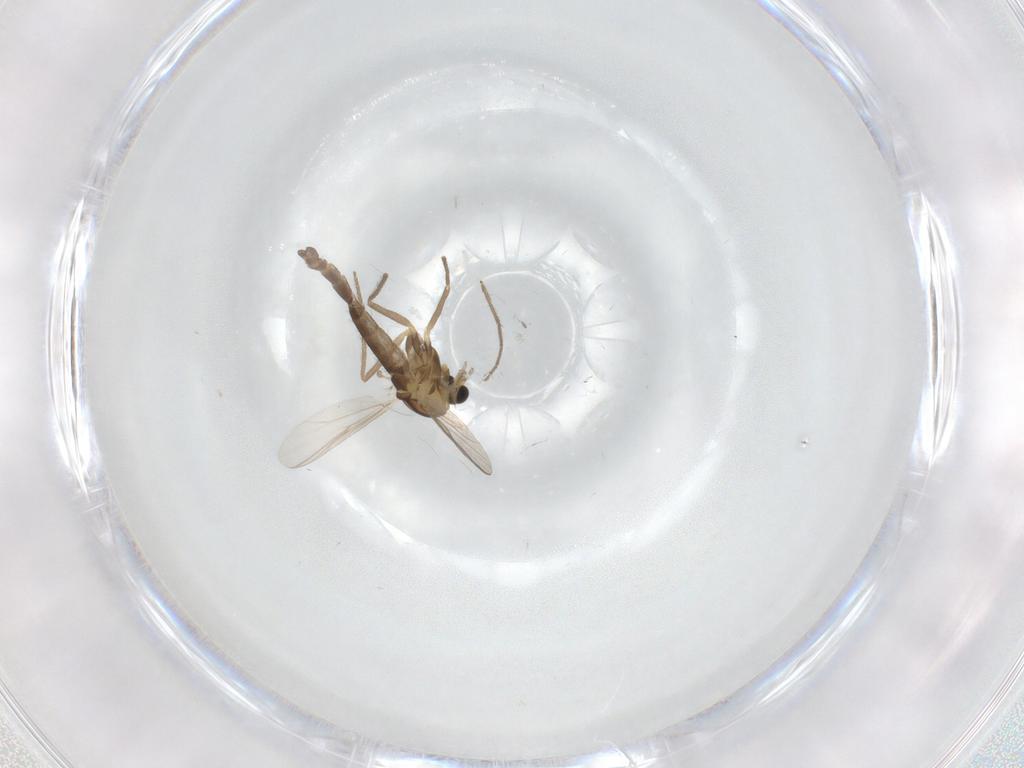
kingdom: Animalia
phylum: Arthropoda
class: Insecta
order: Diptera
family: Chironomidae
